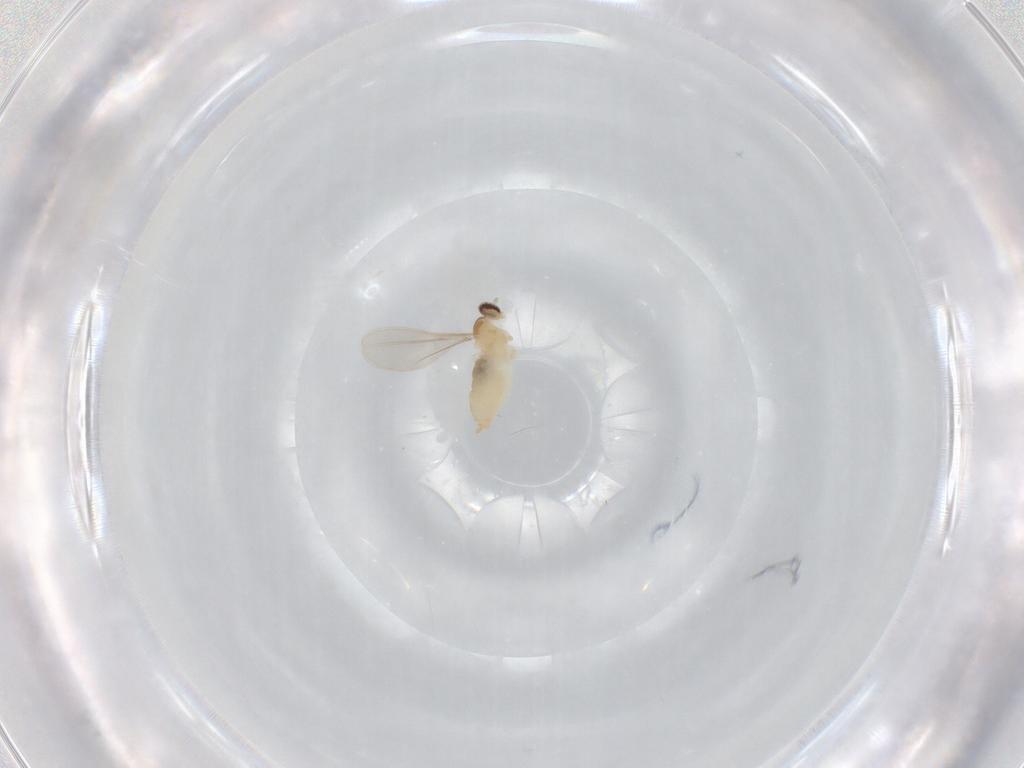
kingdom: Animalia
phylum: Arthropoda
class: Insecta
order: Diptera
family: Cecidomyiidae
